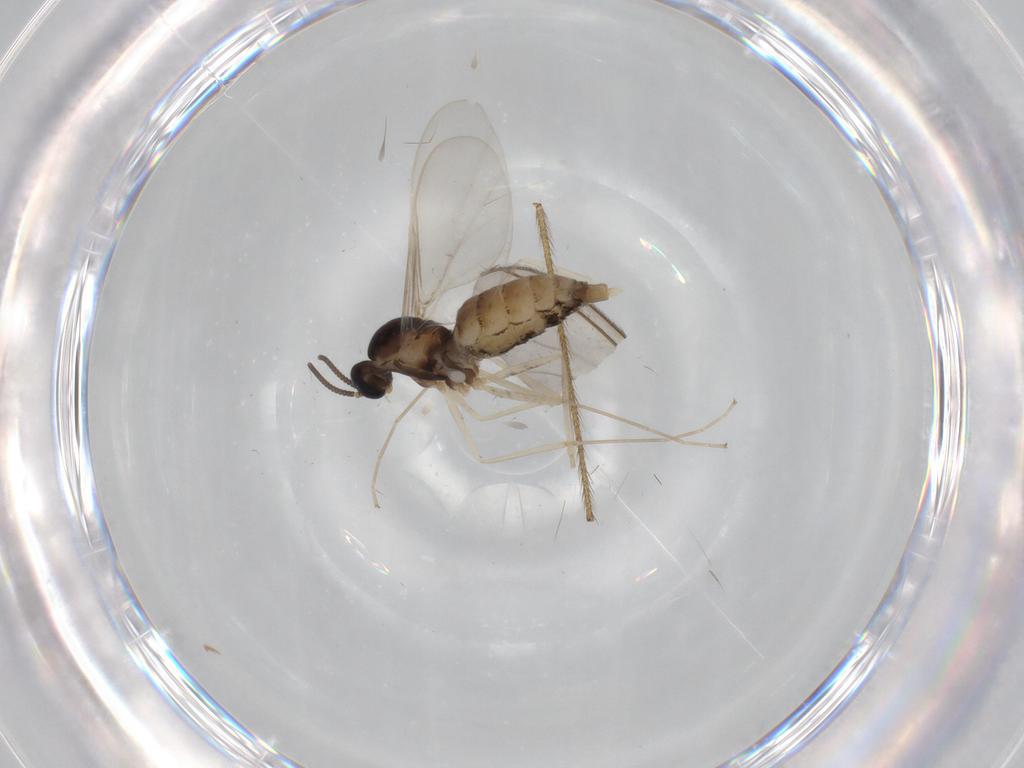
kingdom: Animalia
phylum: Arthropoda
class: Insecta
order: Diptera
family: Limoniidae
